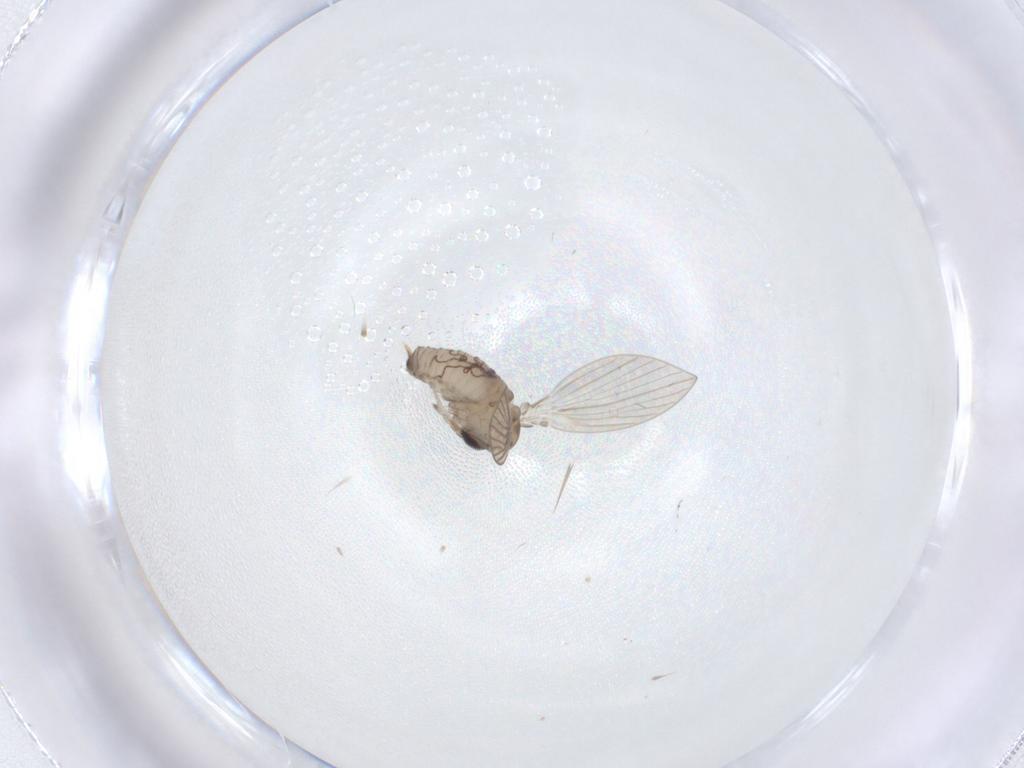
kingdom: Animalia
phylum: Arthropoda
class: Insecta
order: Diptera
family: Psychodidae
